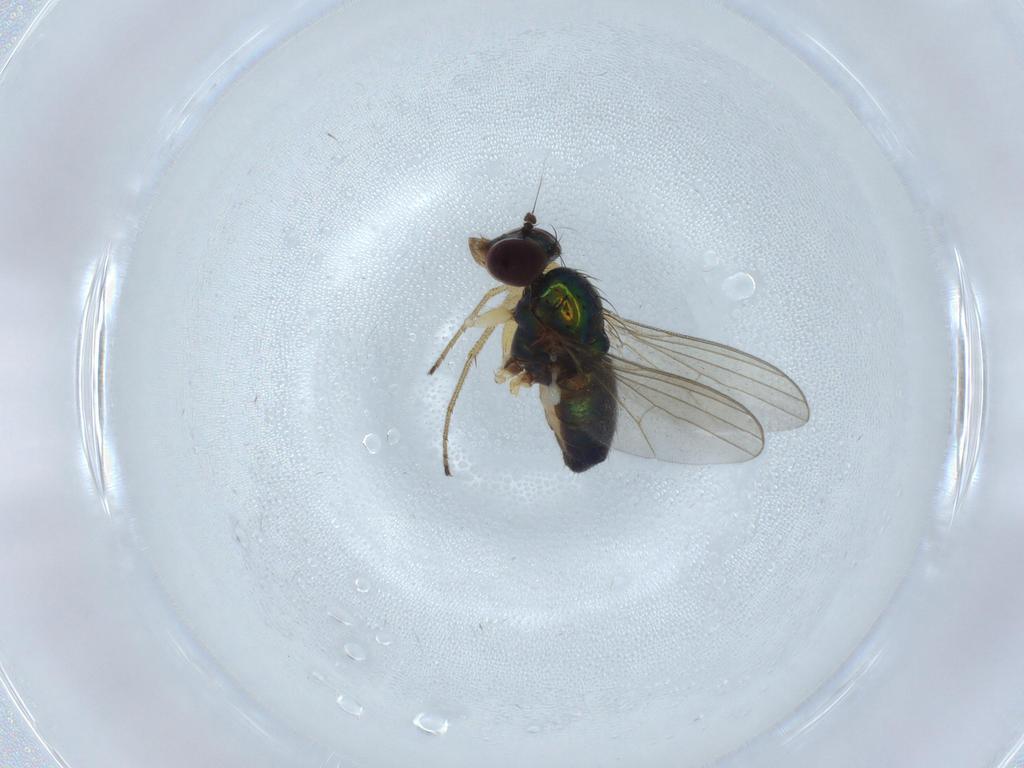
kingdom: Animalia
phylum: Arthropoda
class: Insecta
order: Diptera
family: Dolichopodidae
